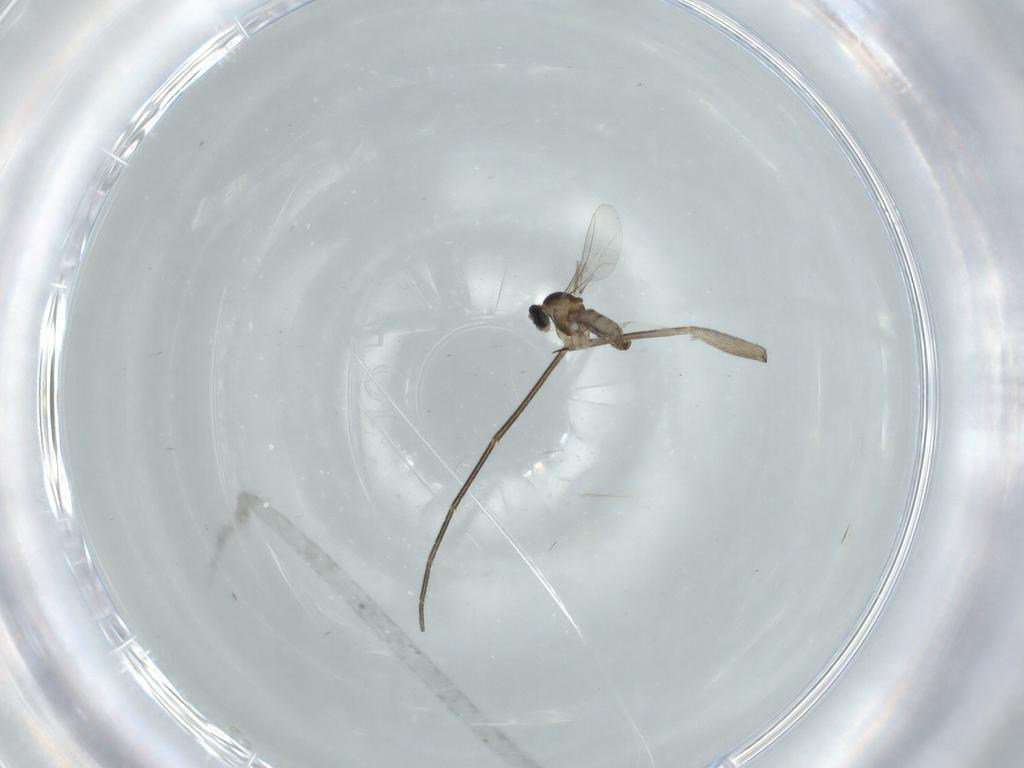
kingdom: Animalia
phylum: Arthropoda
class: Insecta
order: Diptera
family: Cecidomyiidae
